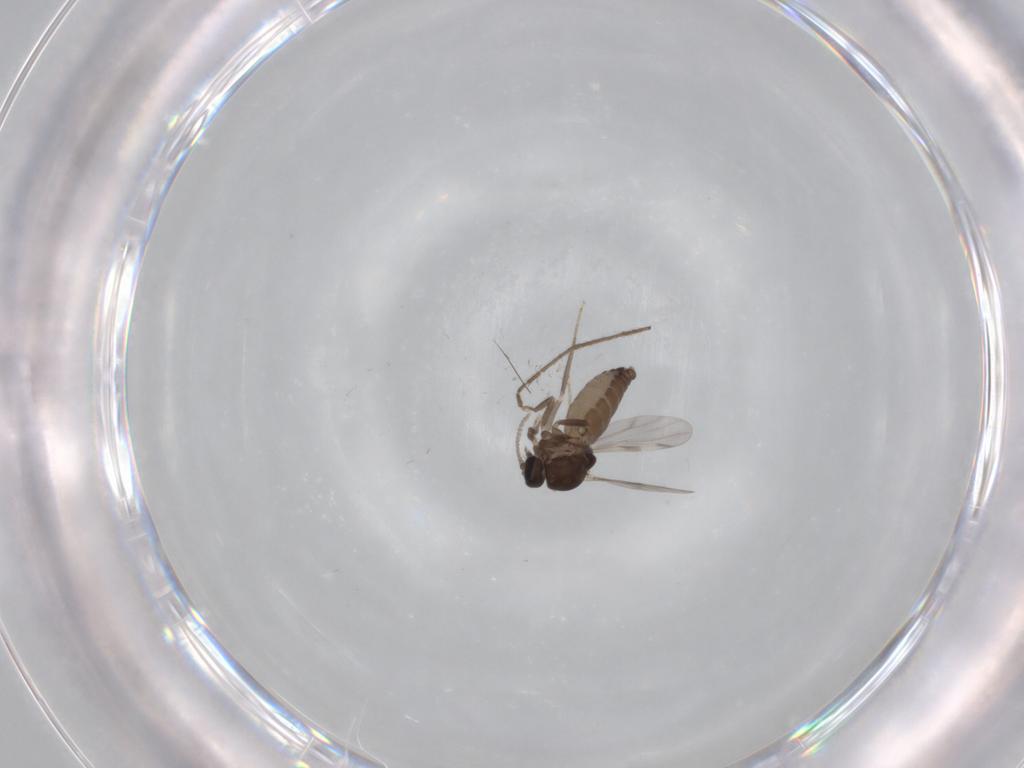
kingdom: Animalia
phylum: Arthropoda
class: Insecta
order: Diptera
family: Ceratopogonidae
